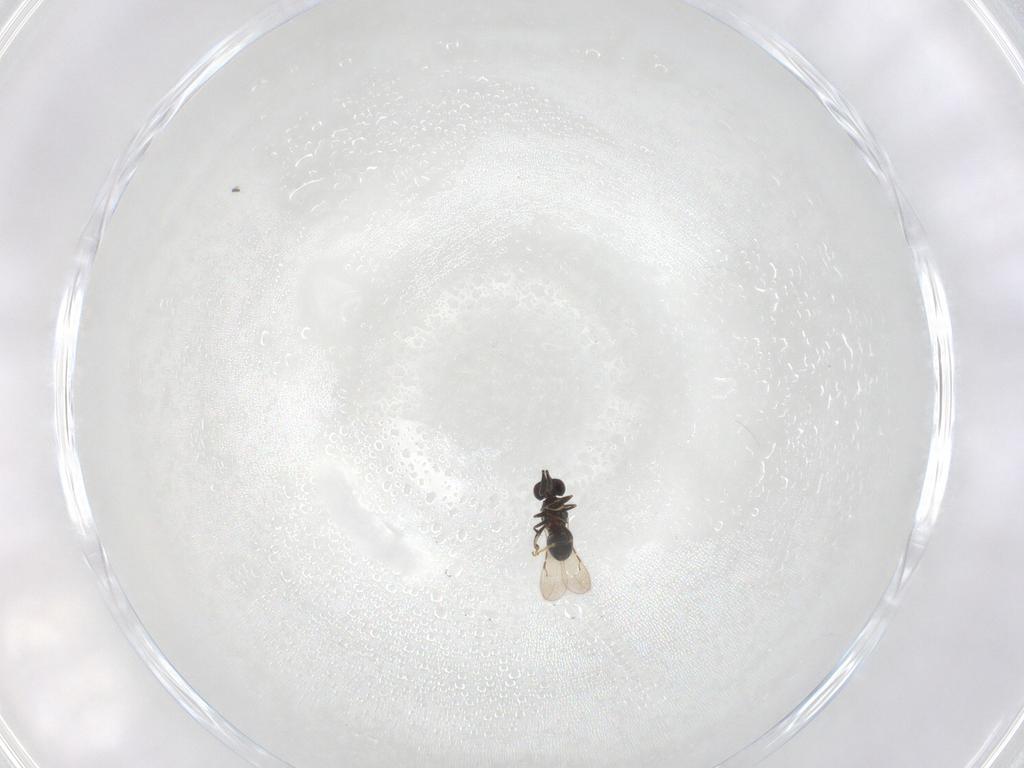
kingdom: Animalia
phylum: Arthropoda
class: Insecta
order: Hymenoptera
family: Aphelinidae
